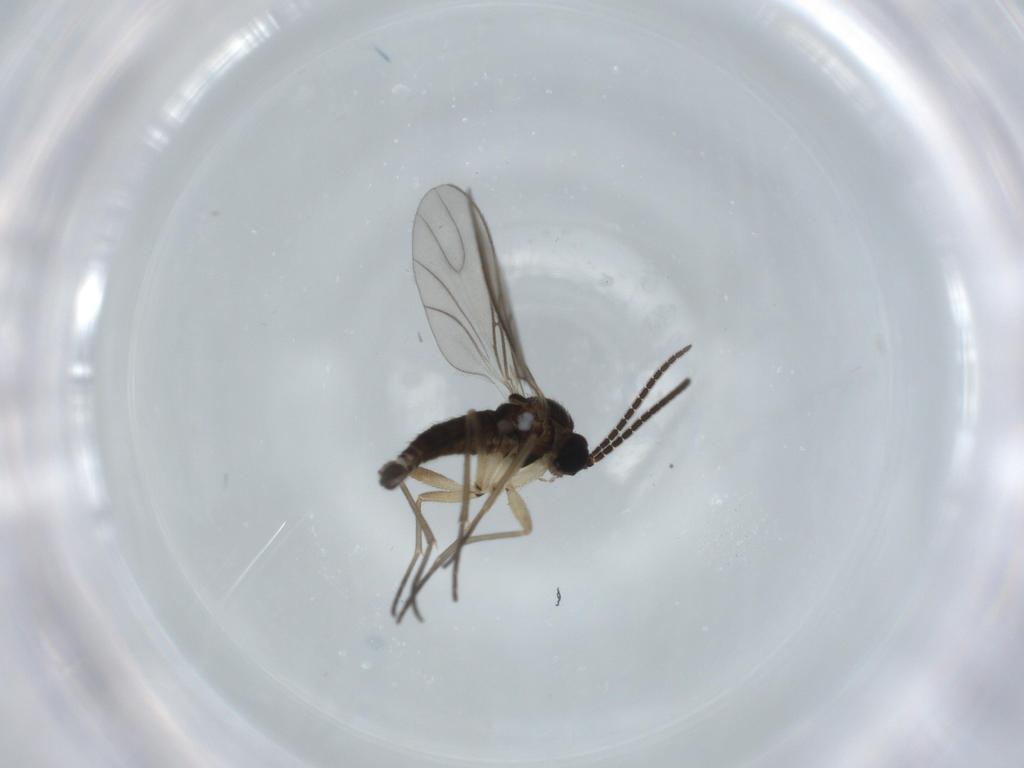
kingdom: Animalia
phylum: Arthropoda
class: Insecta
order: Diptera
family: Sciaridae
